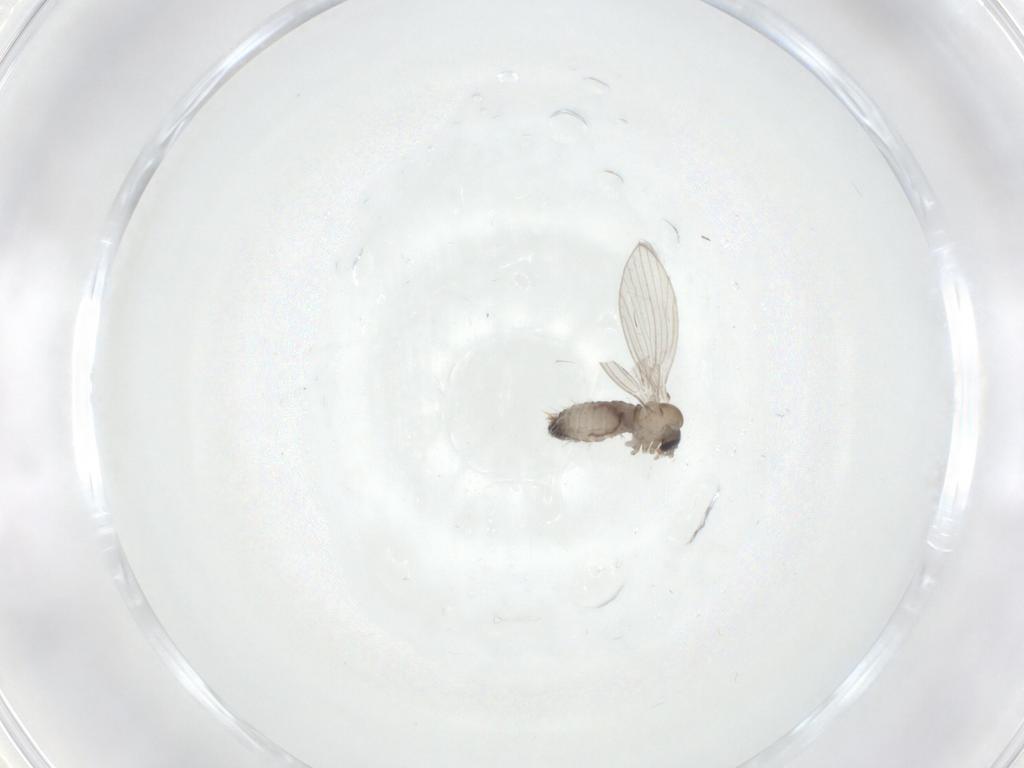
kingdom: Animalia
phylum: Arthropoda
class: Insecta
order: Diptera
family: Psychodidae
